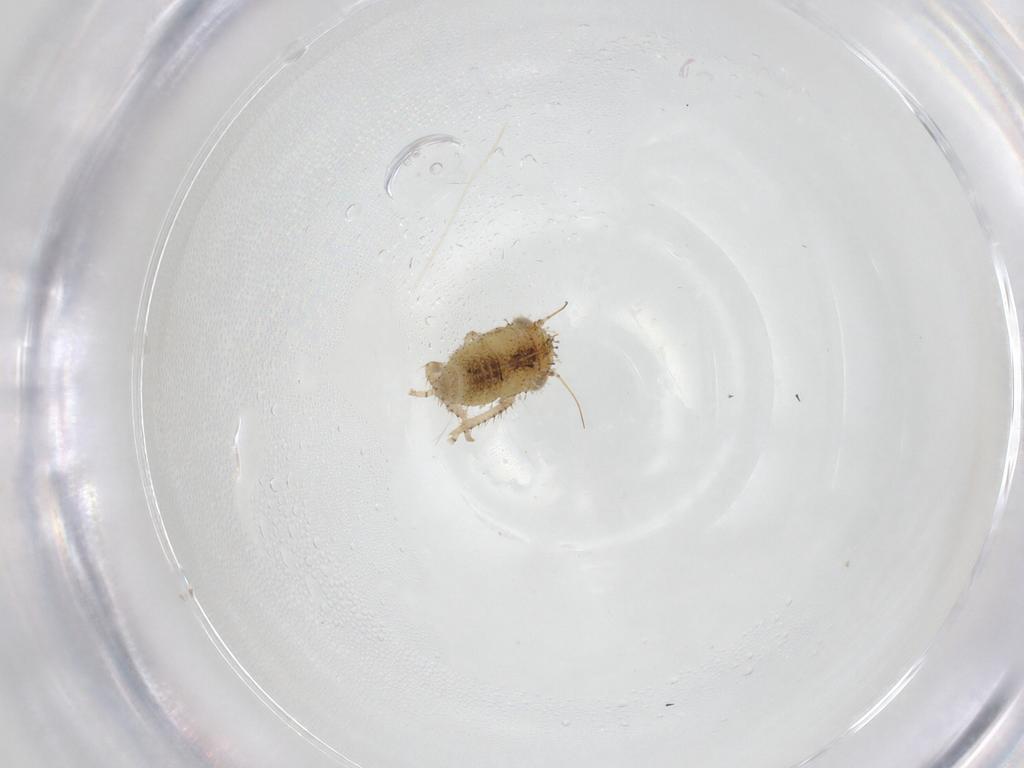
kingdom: Animalia
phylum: Arthropoda
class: Insecta
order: Hemiptera
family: Cicadellidae
